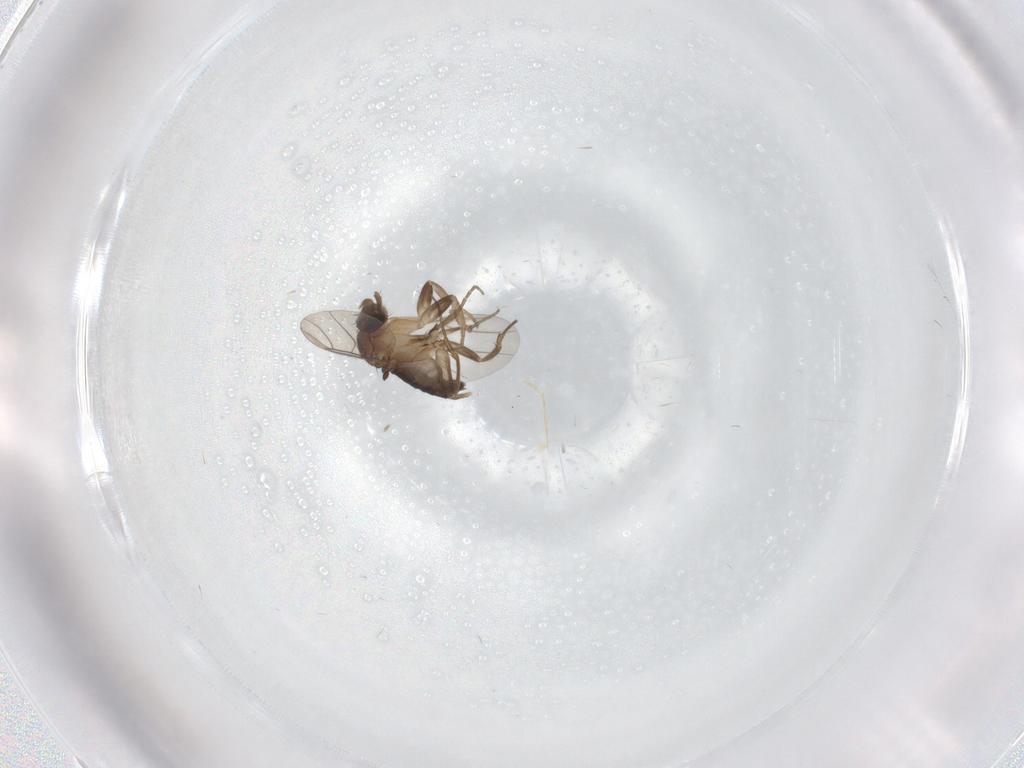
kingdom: Animalia
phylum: Arthropoda
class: Insecta
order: Diptera
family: Phoridae
